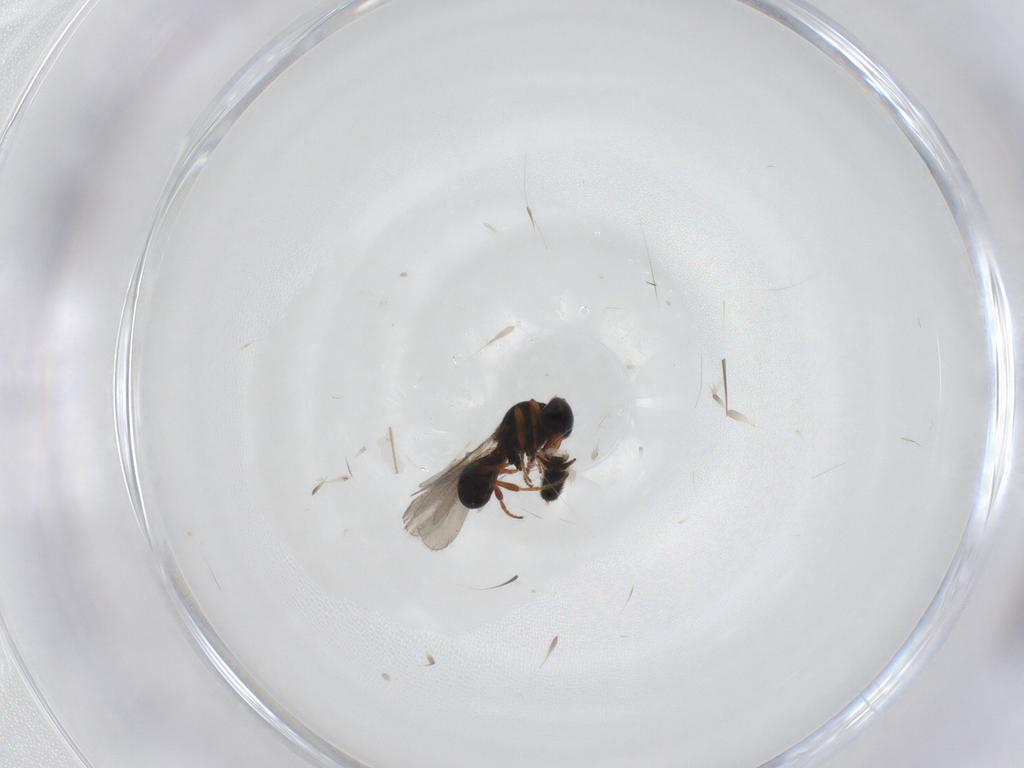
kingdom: Animalia
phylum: Arthropoda
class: Insecta
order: Hymenoptera
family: Ichneumonidae
